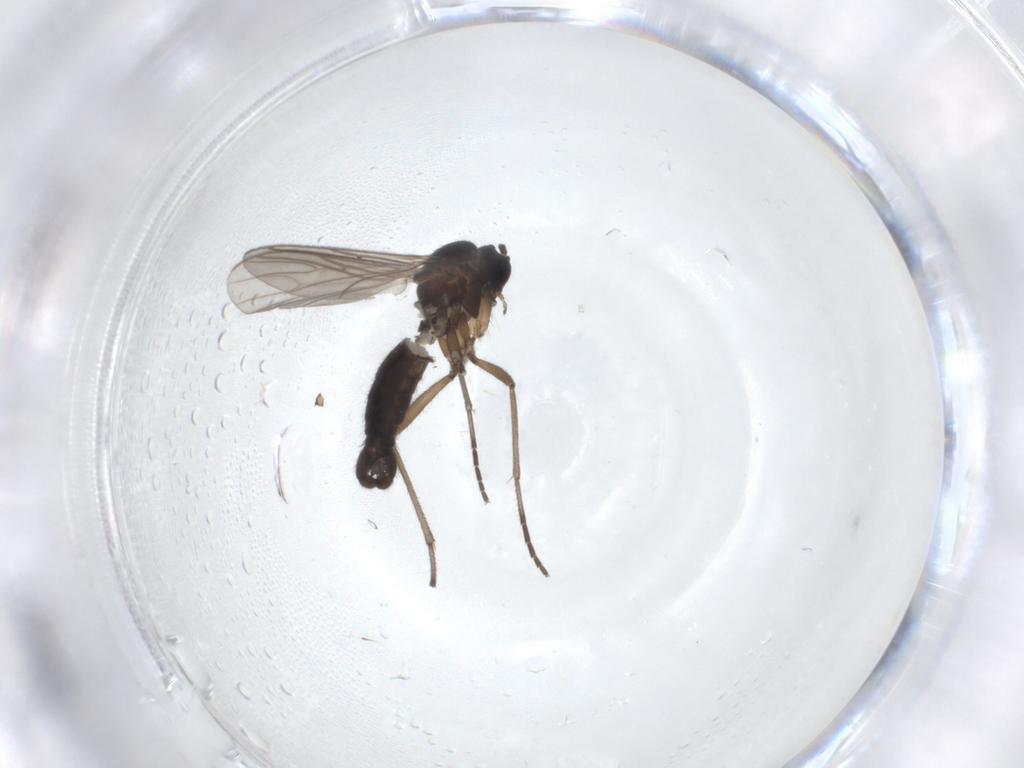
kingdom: Animalia
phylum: Arthropoda
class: Insecta
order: Diptera
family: Sciaridae
